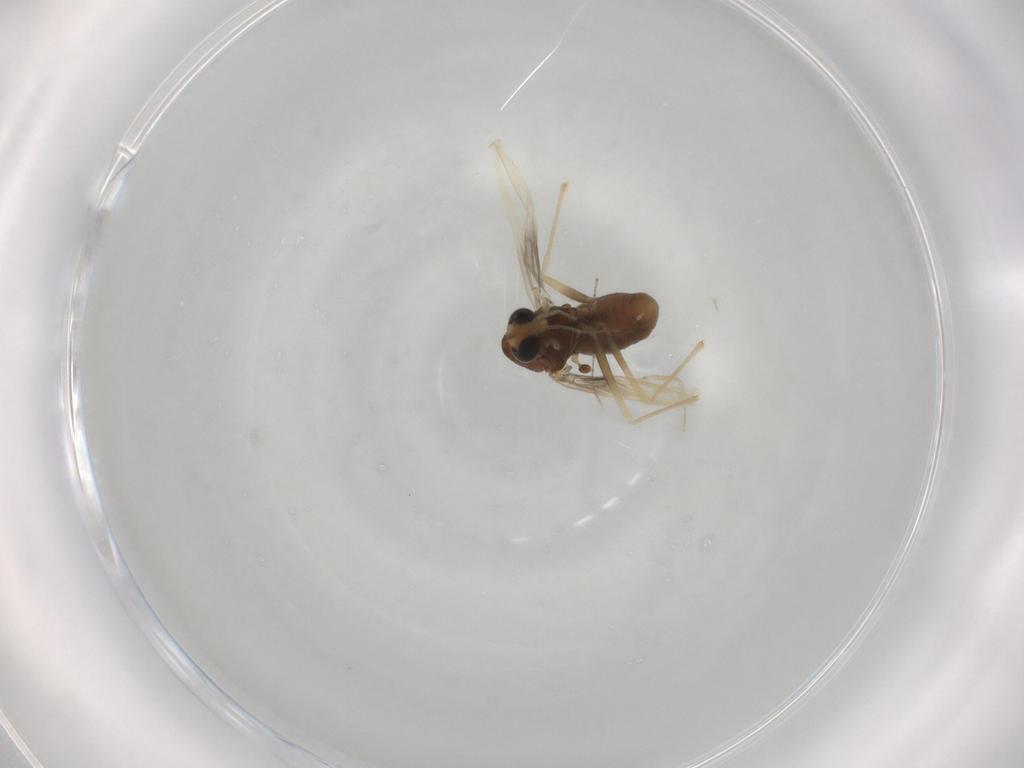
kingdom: Animalia
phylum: Arthropoda
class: Insecta
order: Diptera
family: Chironomidae
